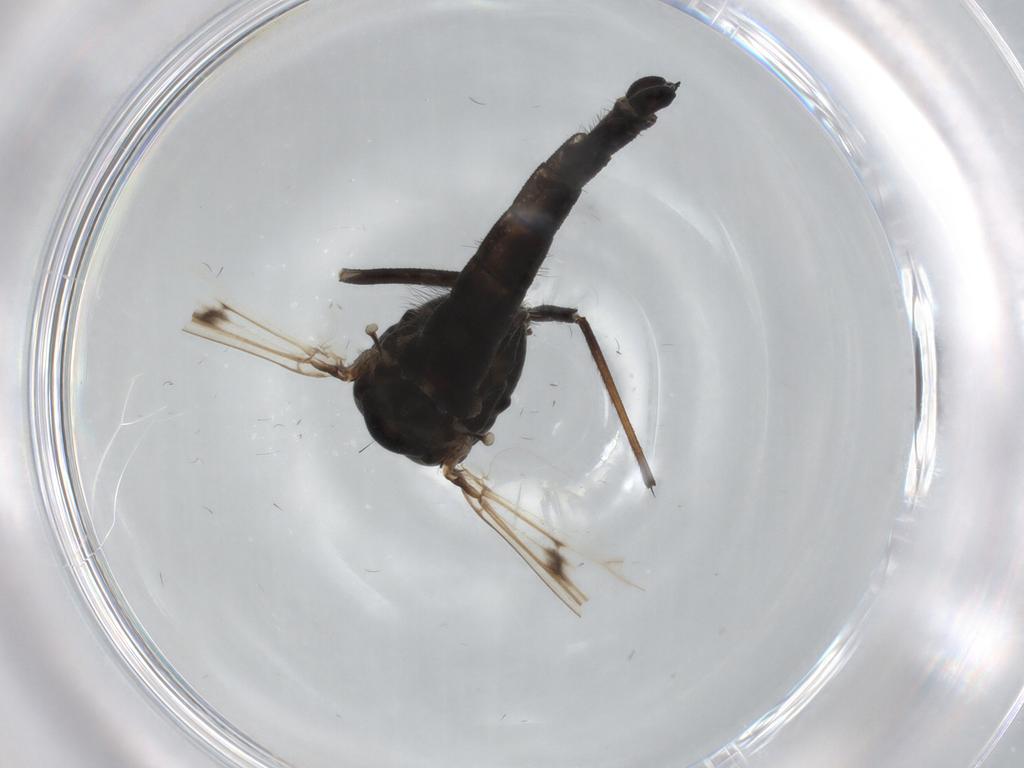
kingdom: Animalia
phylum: Arthropoda
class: Insecta
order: Diptera
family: Chironomidae
